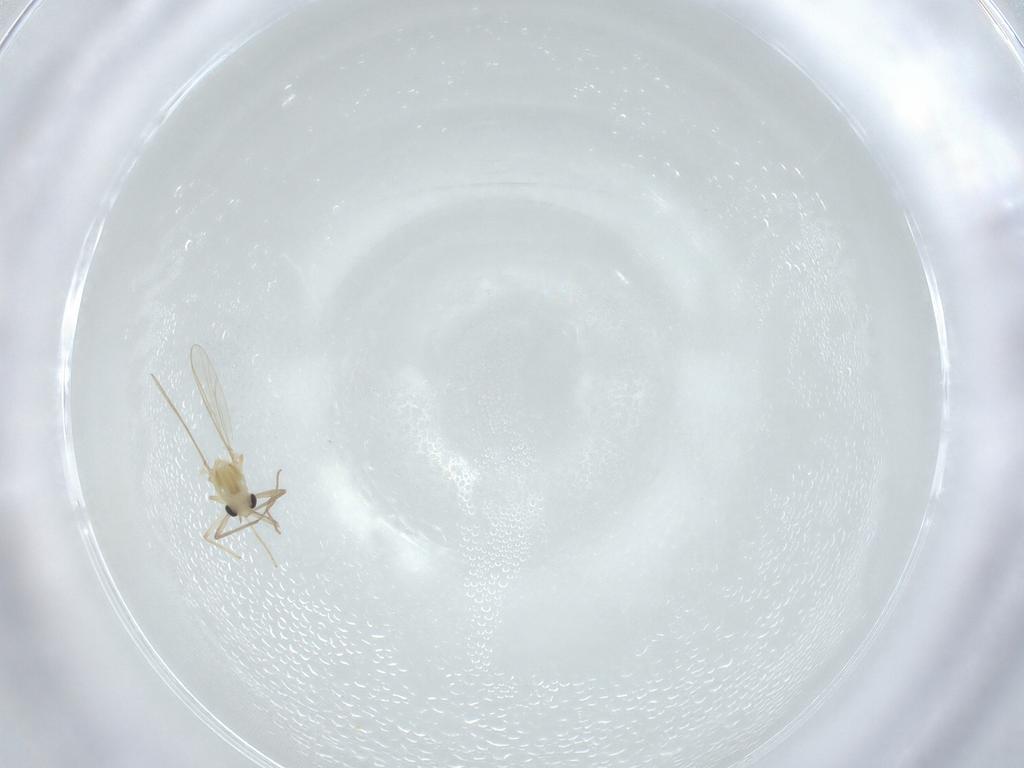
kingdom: Animalia
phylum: Arthropoda
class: Insecta
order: Diptera
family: Chironomidae
